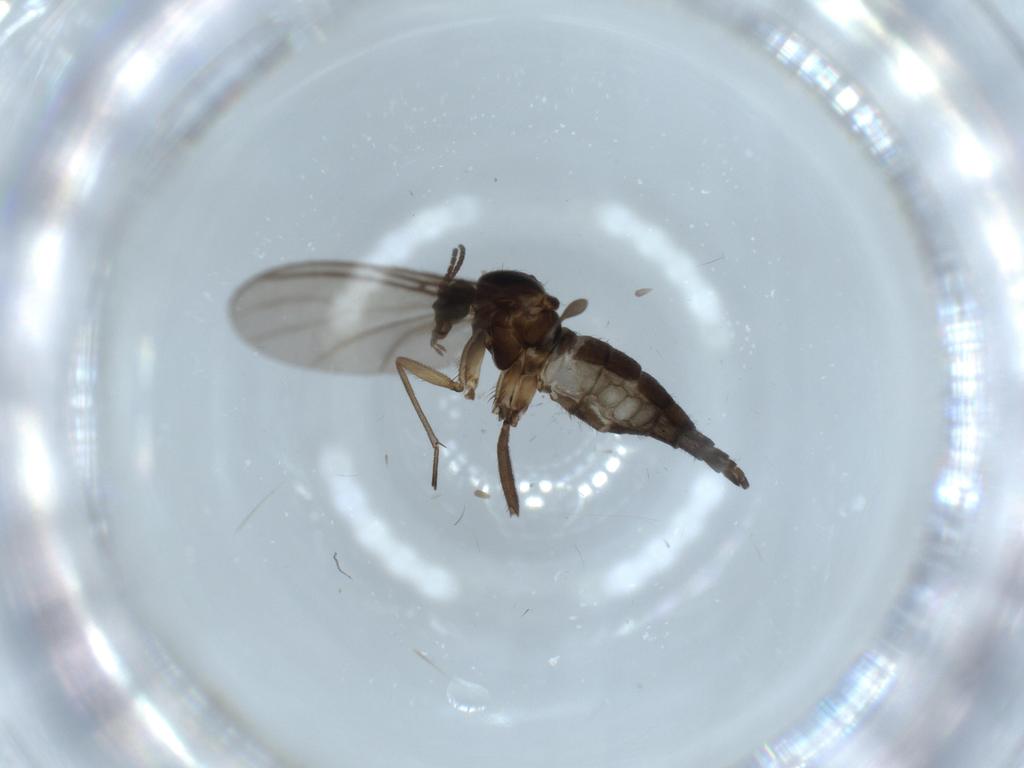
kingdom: Animalia
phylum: Arthropoda
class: Insecta
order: Diptera
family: Sciaridae
